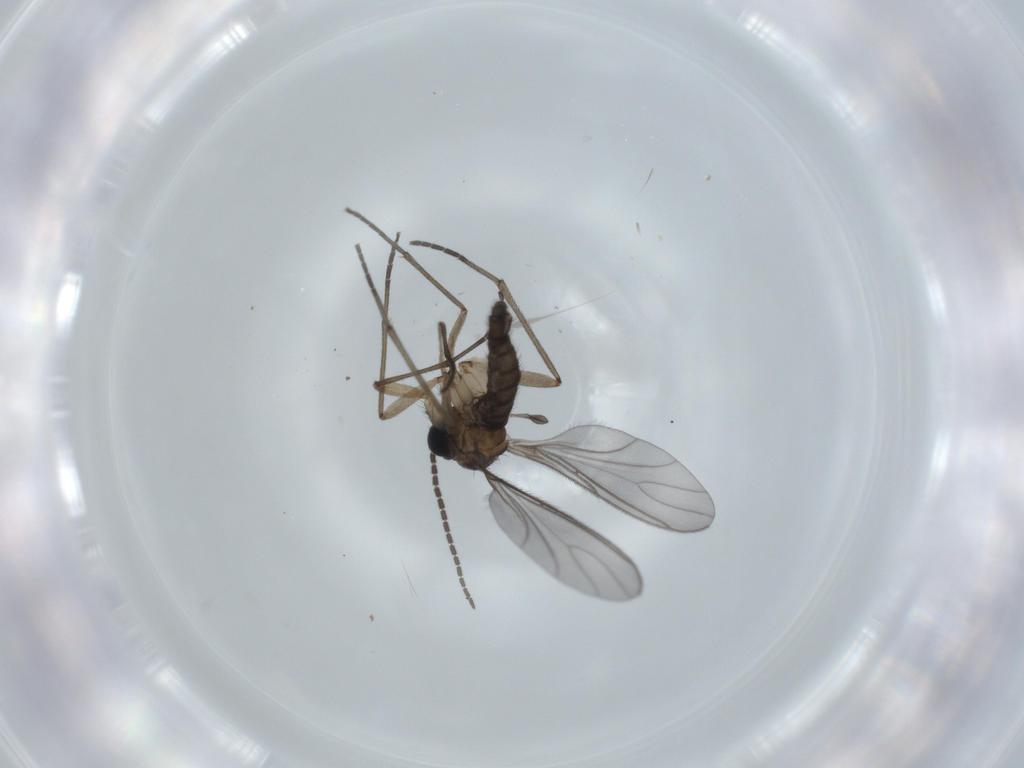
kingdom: Animalia
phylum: Arthropoda
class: Insecta
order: Diptera
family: Sciaridae
